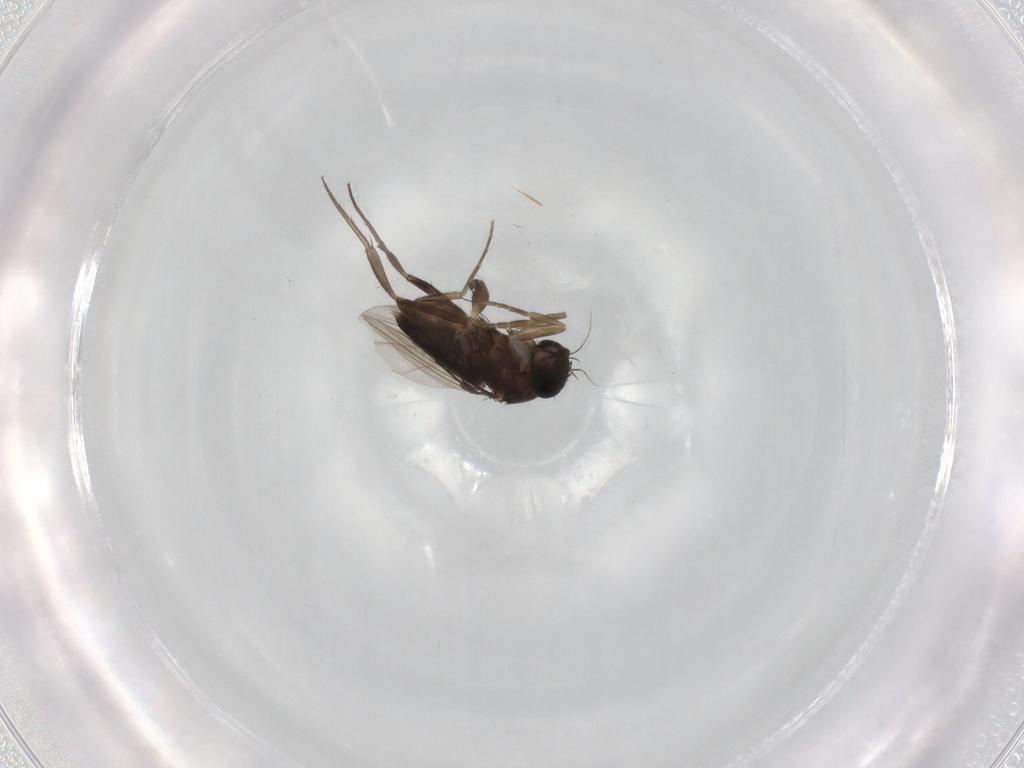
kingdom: Animalia
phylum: Arthropoda
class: Insecta
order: Diptera
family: Phoridae
